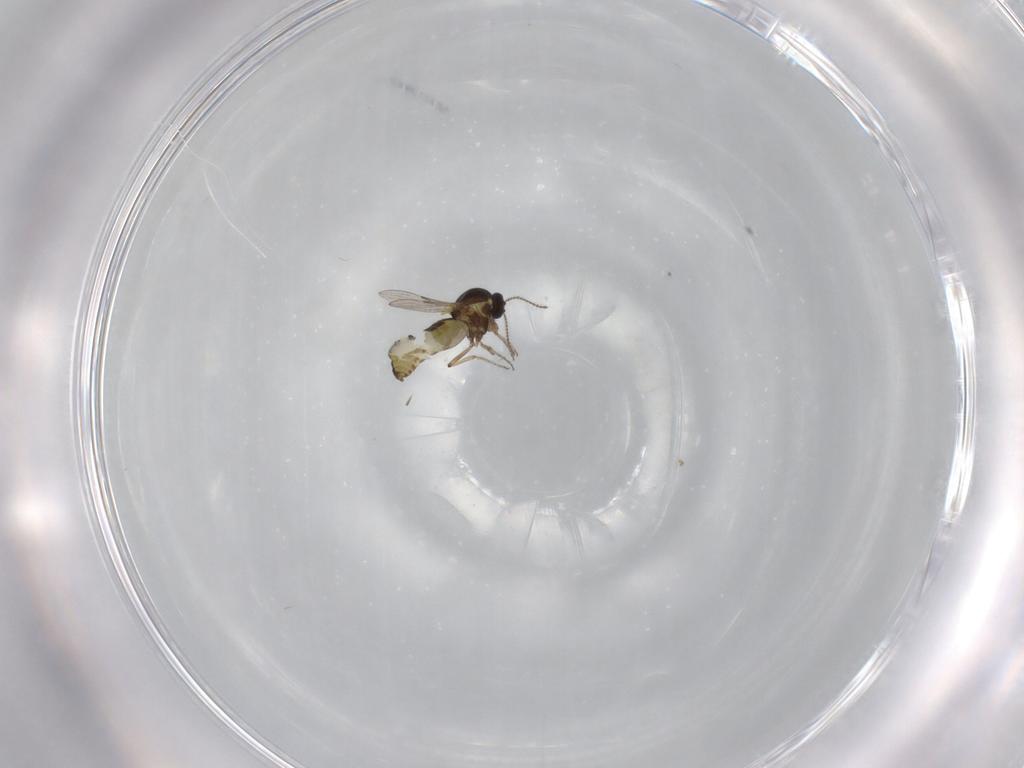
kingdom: Animalia
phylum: Arthropoda
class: Insecta
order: Diptera
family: Ceratopogonidae
